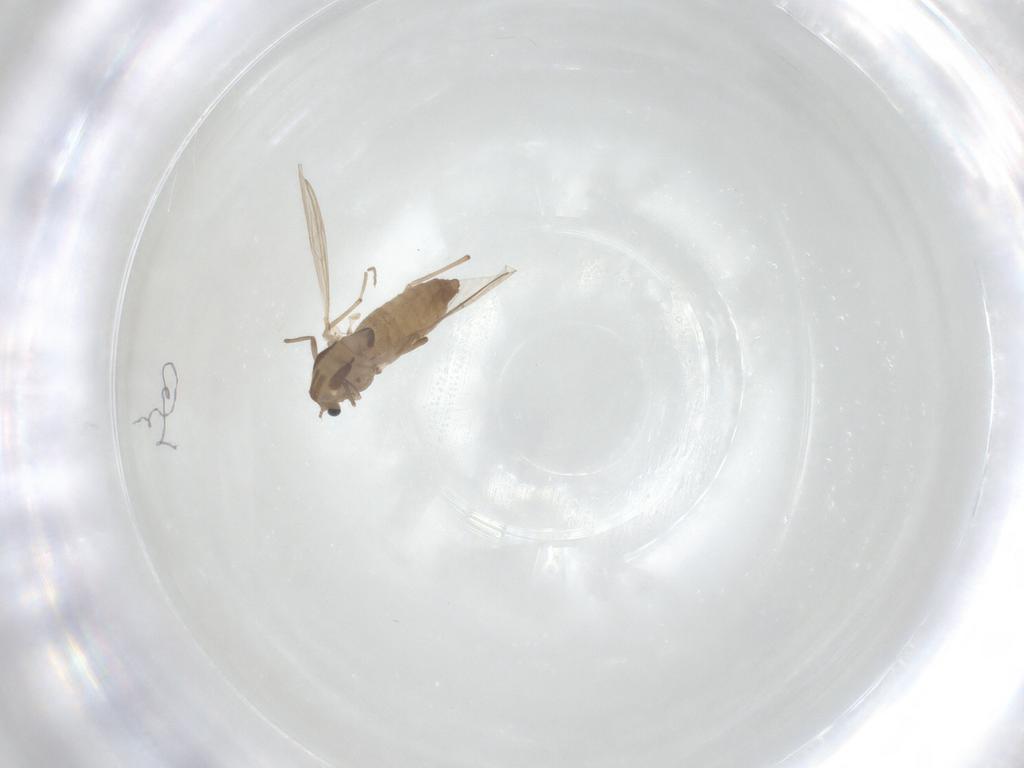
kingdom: Animalia
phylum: Arthropoda
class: Insecta
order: Diptera
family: Chironomidae
